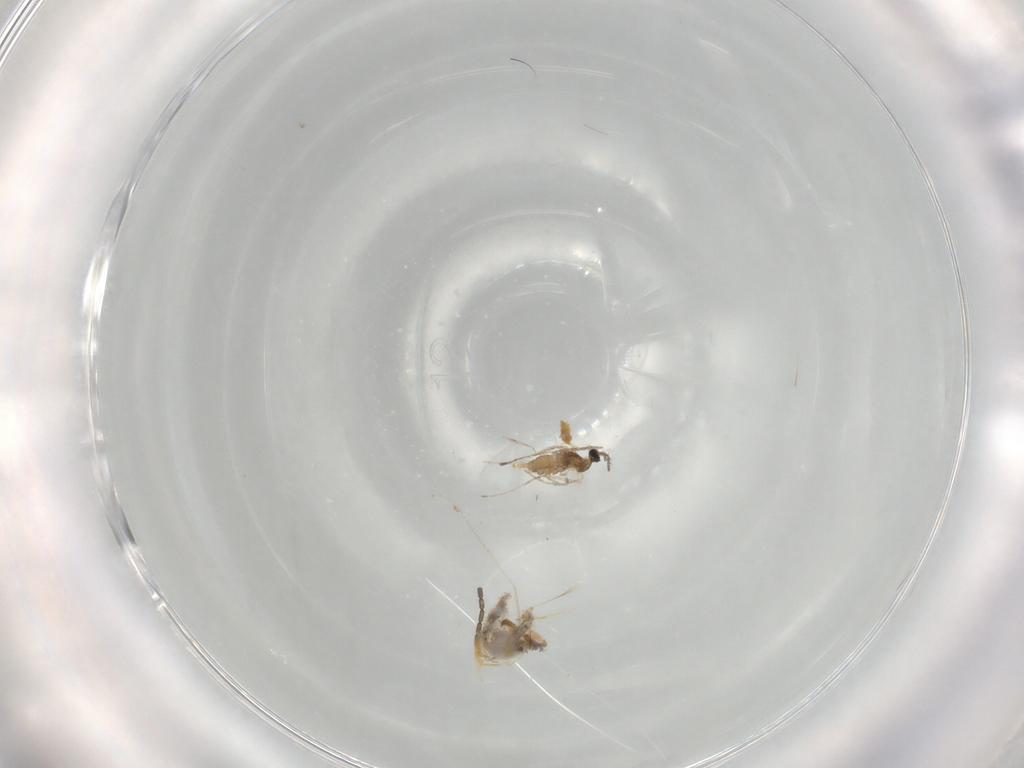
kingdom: Animalia
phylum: Arthropoda
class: Insecta
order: Diptera
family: Cecidomyiidae
